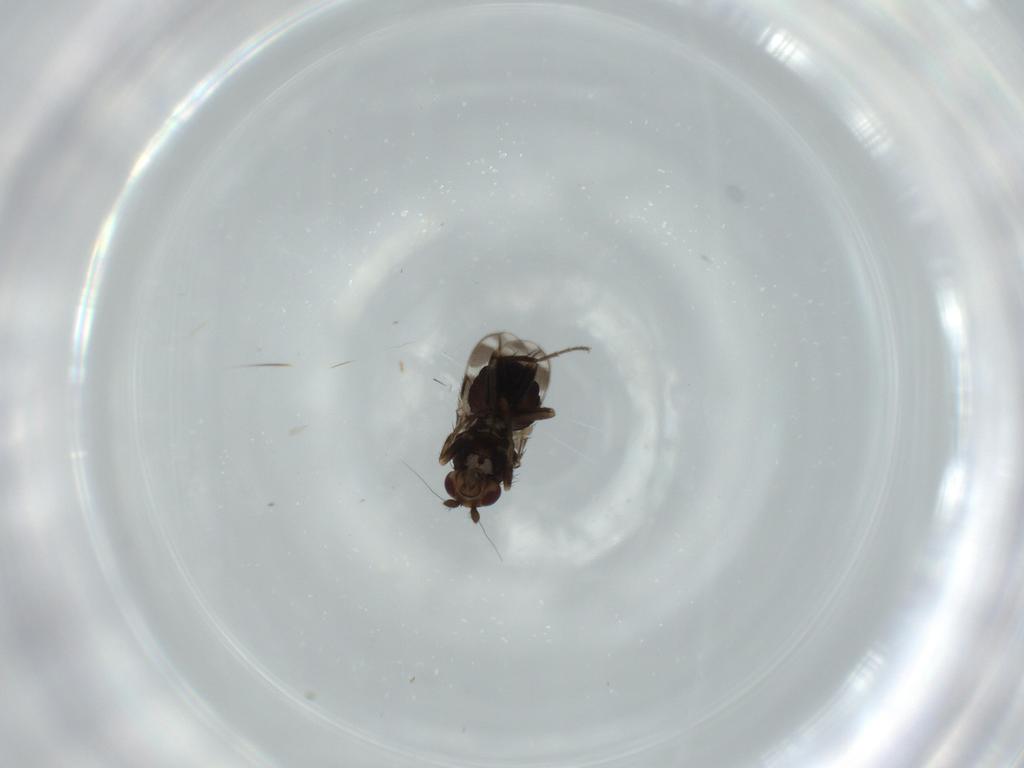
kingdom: Animalia
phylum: Arthropoda
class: Insecta
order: Diptera
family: Sphaeroceridae
